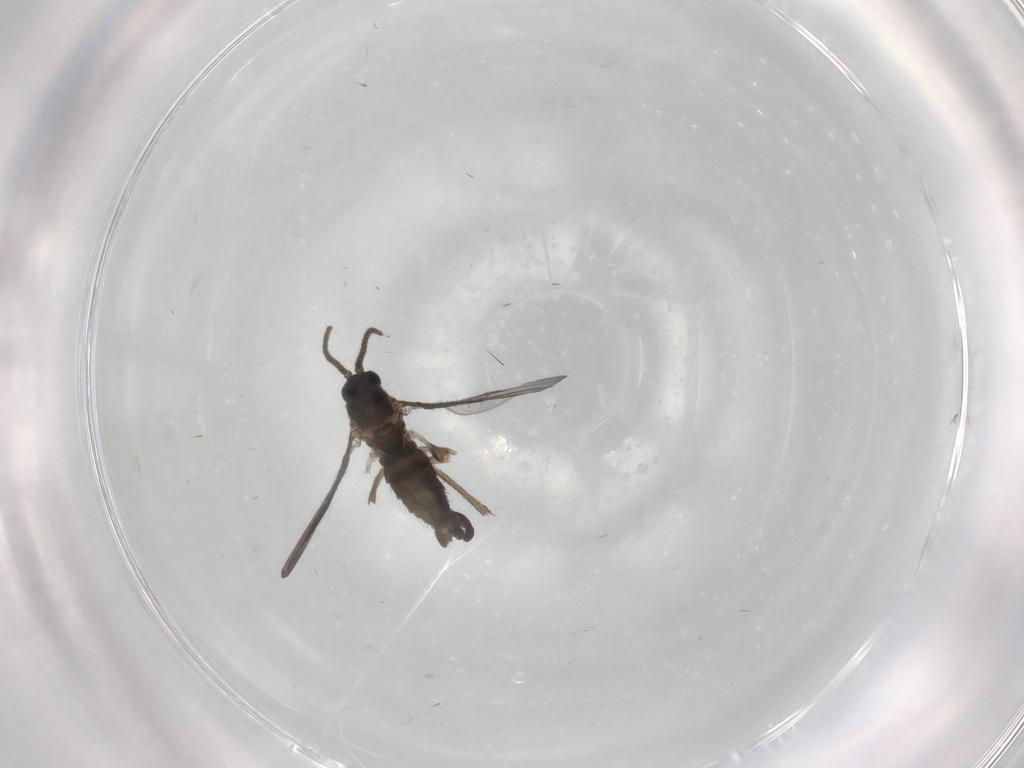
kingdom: Animalia
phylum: Arthropoda
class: Insecta
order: Diptera
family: Sciaridae
